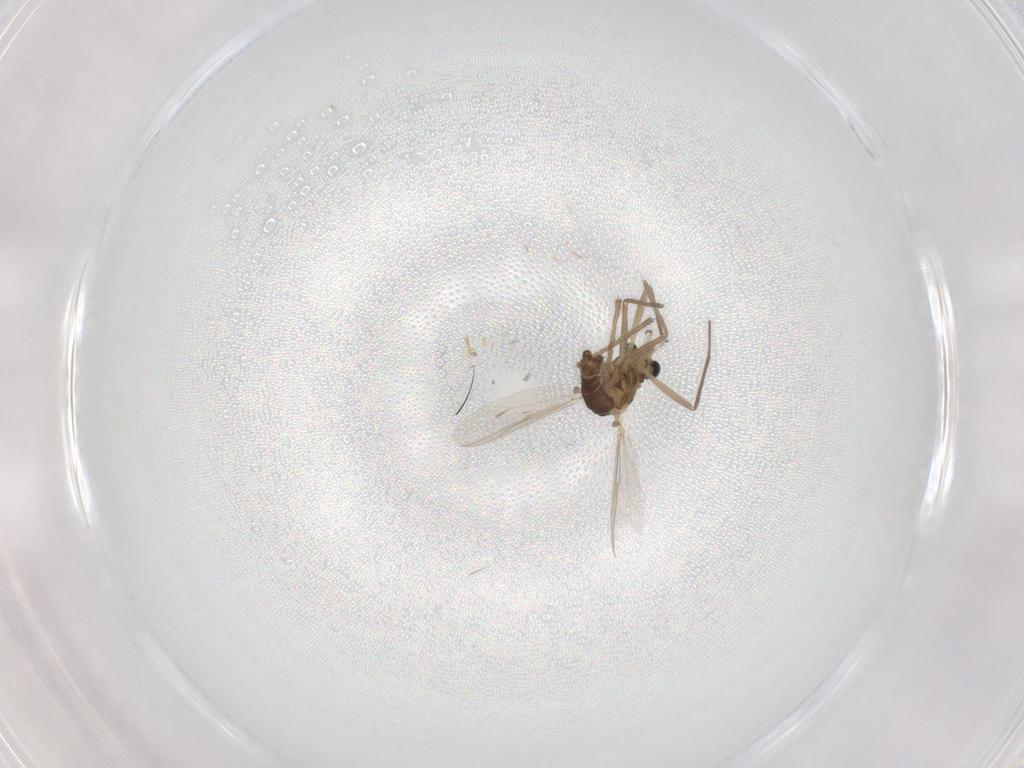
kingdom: Animalia
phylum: Arthropoda
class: Insecta
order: Diptera
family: Chironomidae
